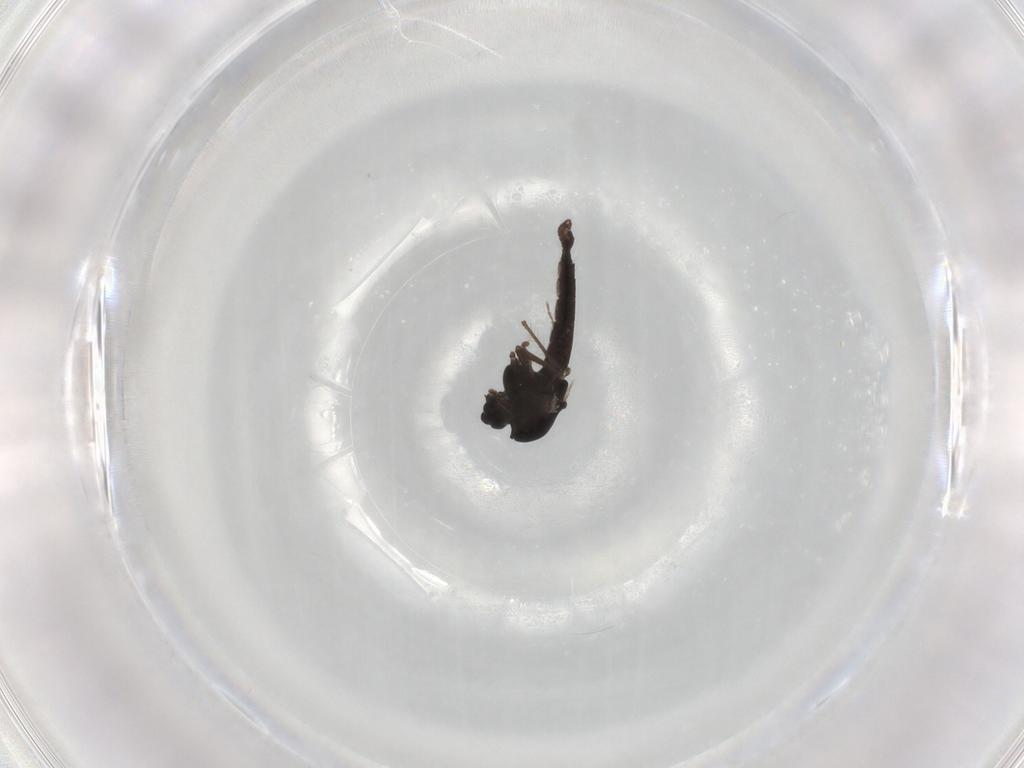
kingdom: Animalia
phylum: Arthropoda
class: Insecta
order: Diptera
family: Chironomidae
